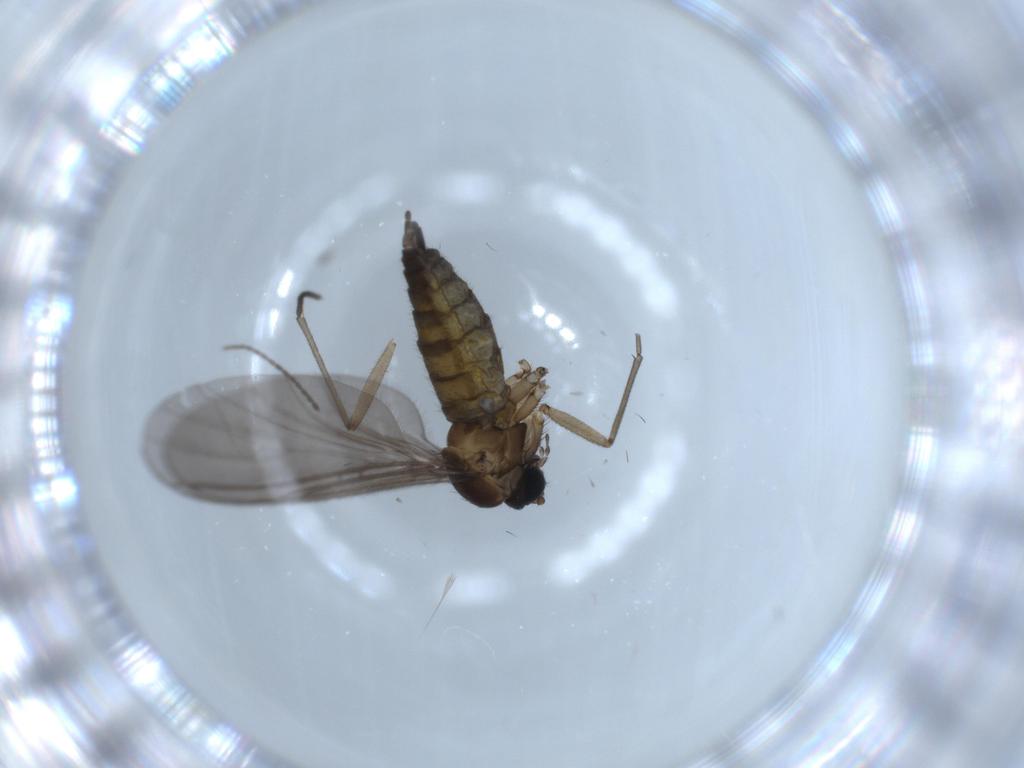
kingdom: Animalia
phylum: Arthropoda
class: Insecta
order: Diptera
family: Sciaridae
